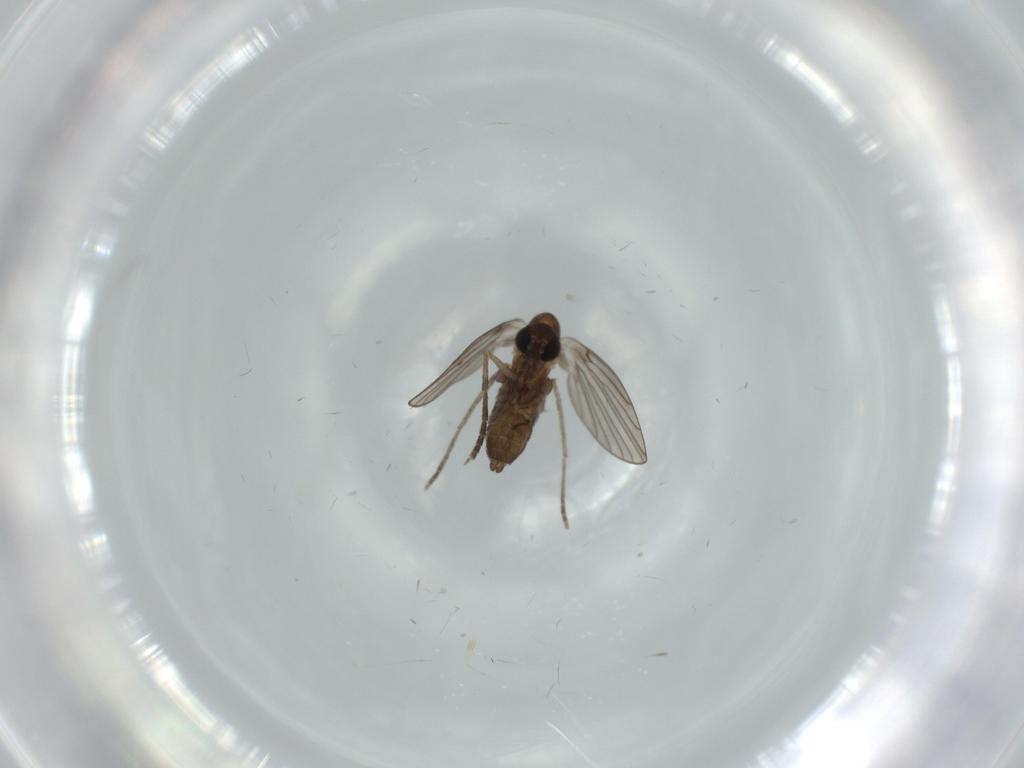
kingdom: Animalia
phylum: Arthropoda
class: Insecta
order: Diptera
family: Psychodidae
